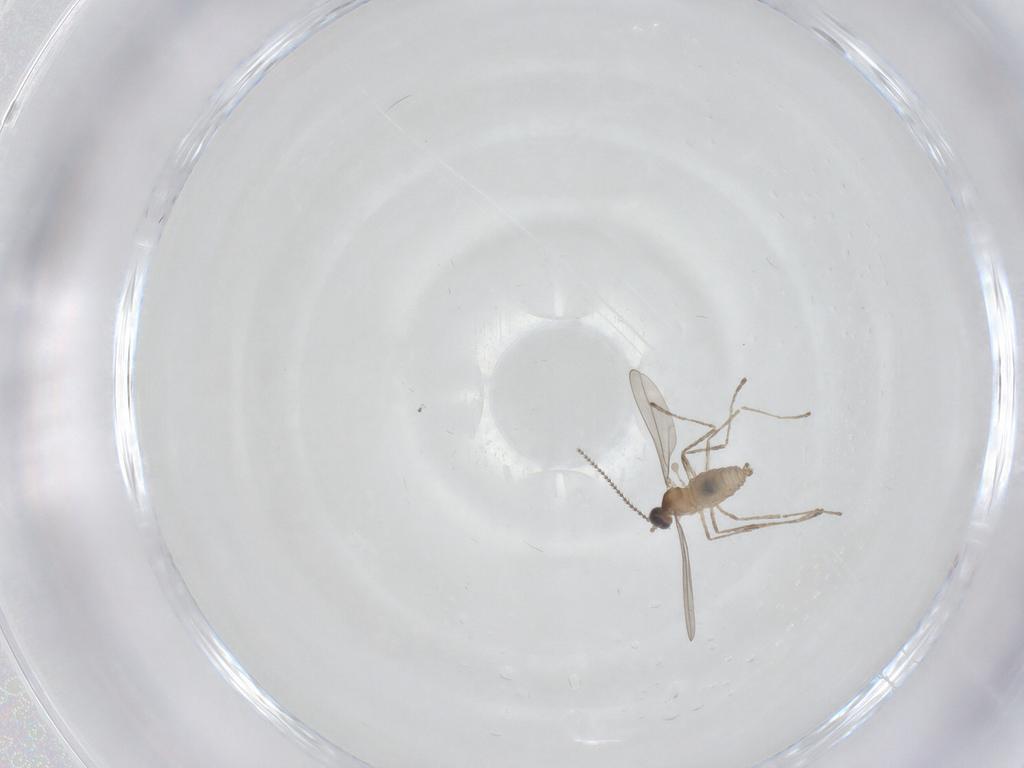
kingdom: Animalia
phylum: Arthropoda
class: Insecta
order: Diptera
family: Cecidomyiidae
